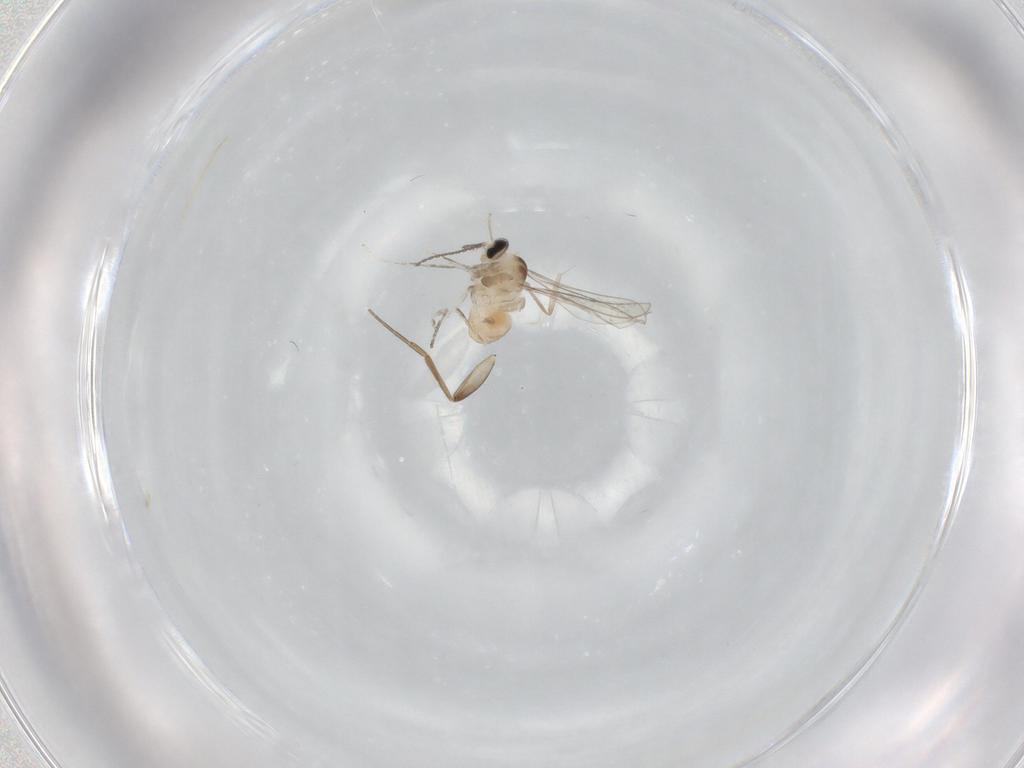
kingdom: Animalia
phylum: Arthropoda
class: Insecta
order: Diptera
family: Cecidomyiidae
